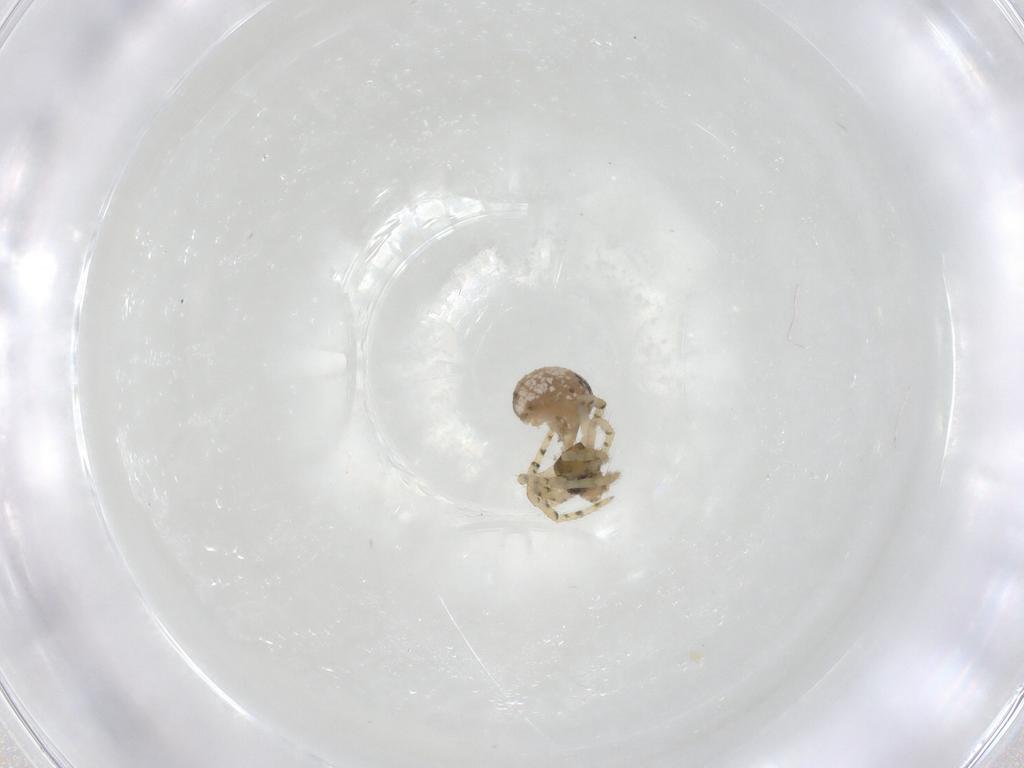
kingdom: Animalia
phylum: Arthropoda
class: Arachnida
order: Araneae
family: Theridiidae
